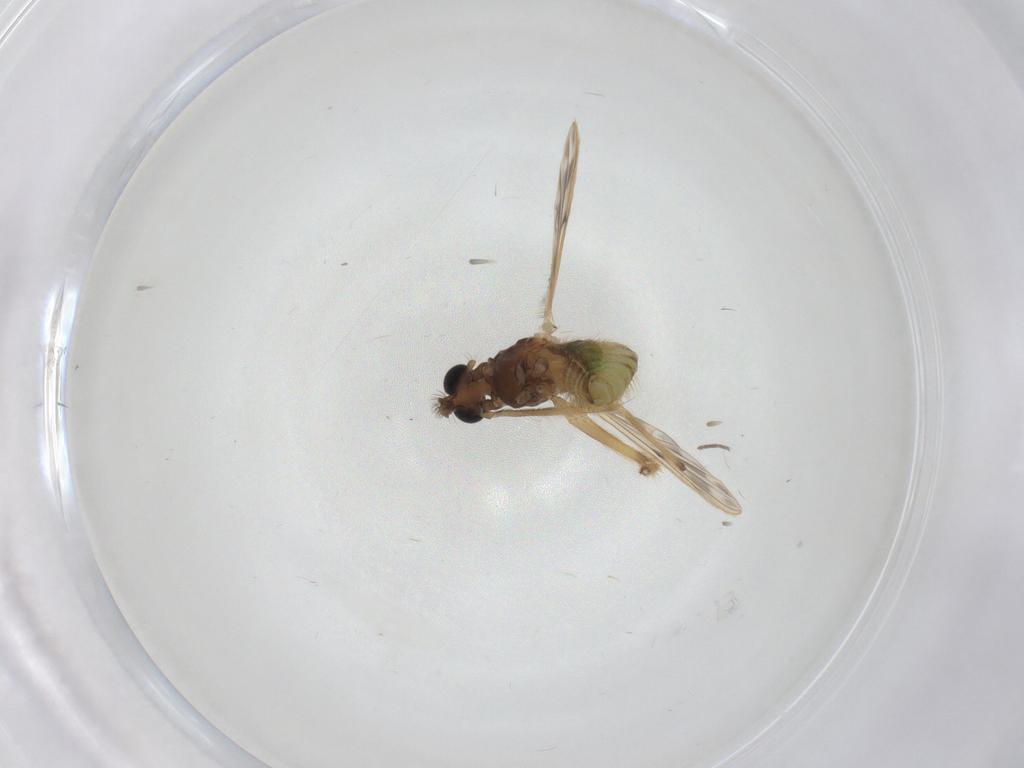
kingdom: Animalia
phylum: Arthropoda
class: Insecta
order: Diptera
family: Chironomidae
